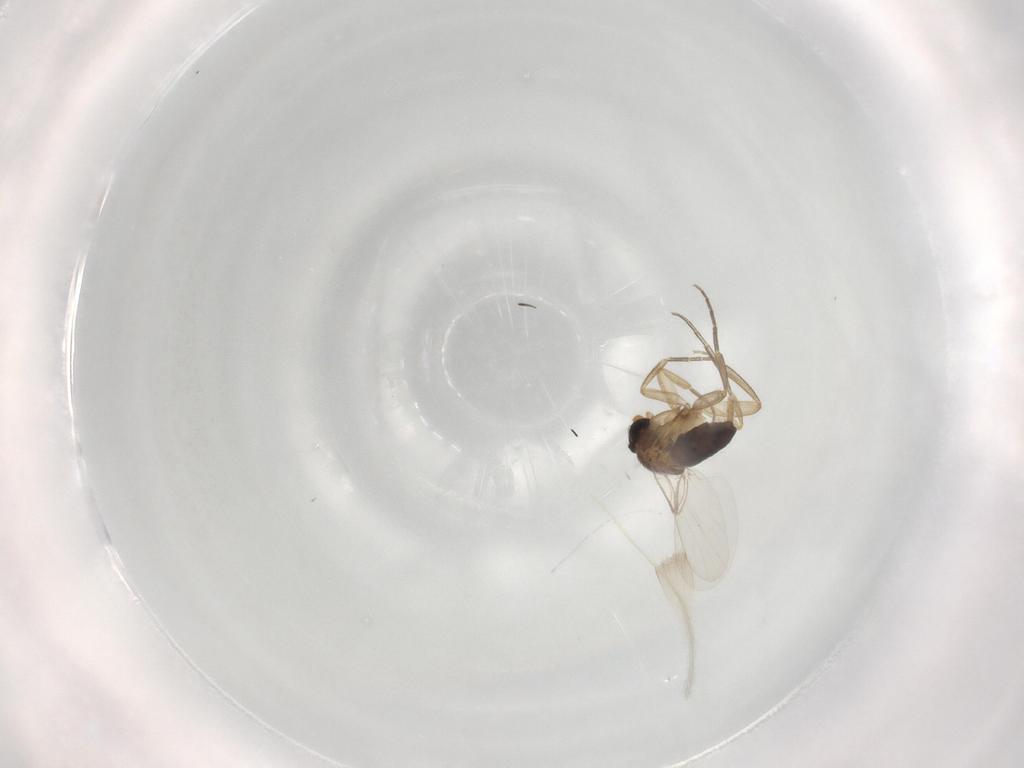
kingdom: Animalia
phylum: Arthropoda
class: Insecta
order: Diptera
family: Phoridae
